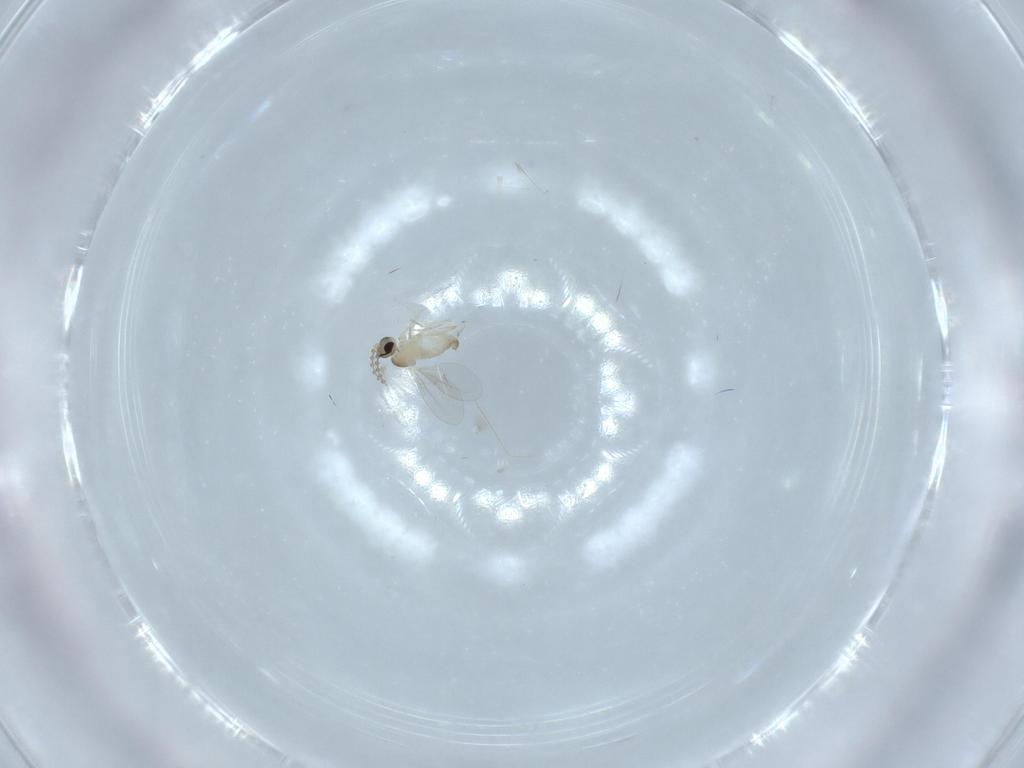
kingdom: Animalia
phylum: Arthropoda
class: Insecta
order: Diptera
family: Cecidomyiidae
